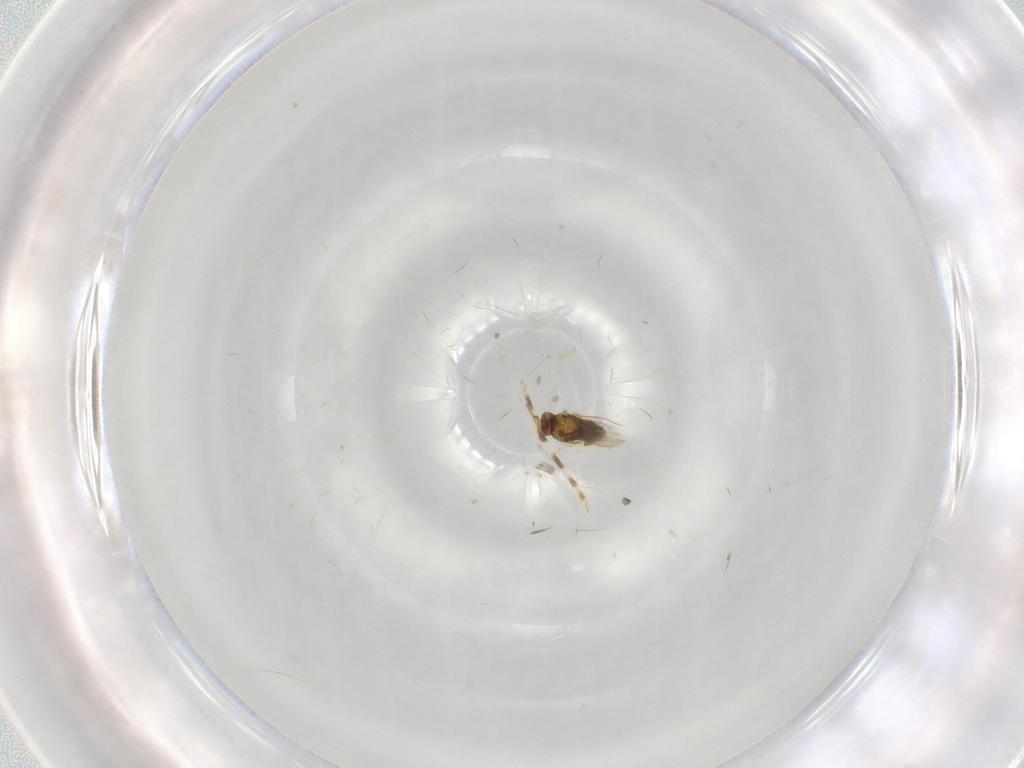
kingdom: Animalia
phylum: Arthropoda
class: Insecta
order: Hymenoptera
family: Aphelinidae
